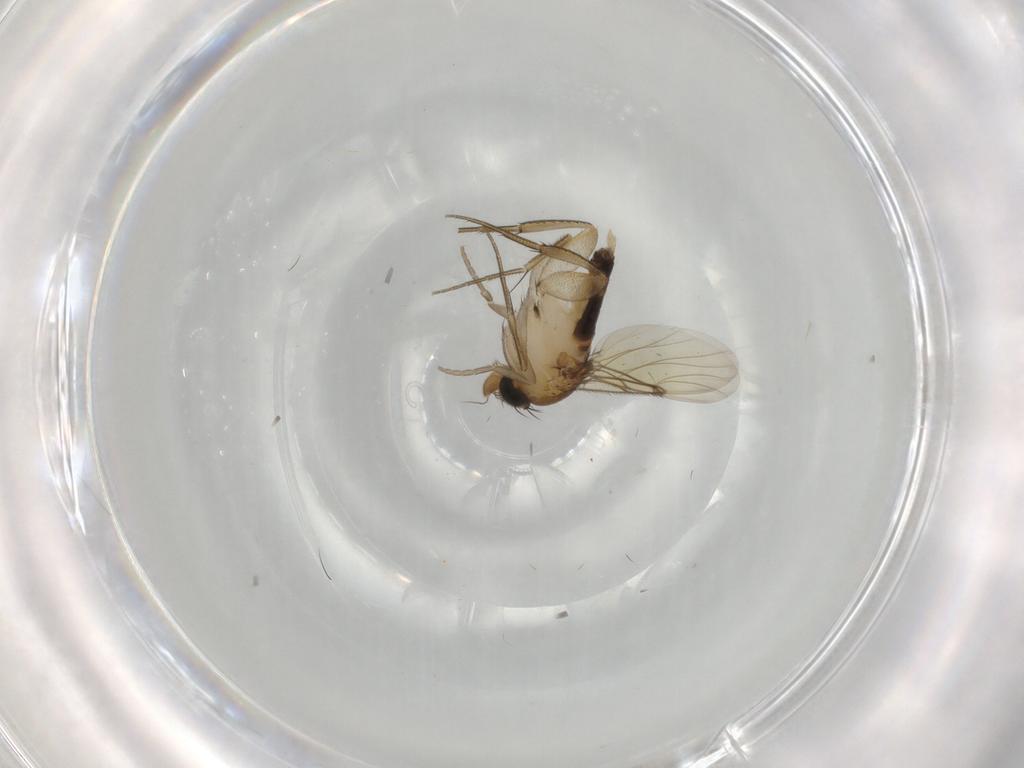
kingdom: Animalia
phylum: Arthropoda
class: Insecta
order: Diptera
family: Phoridae
